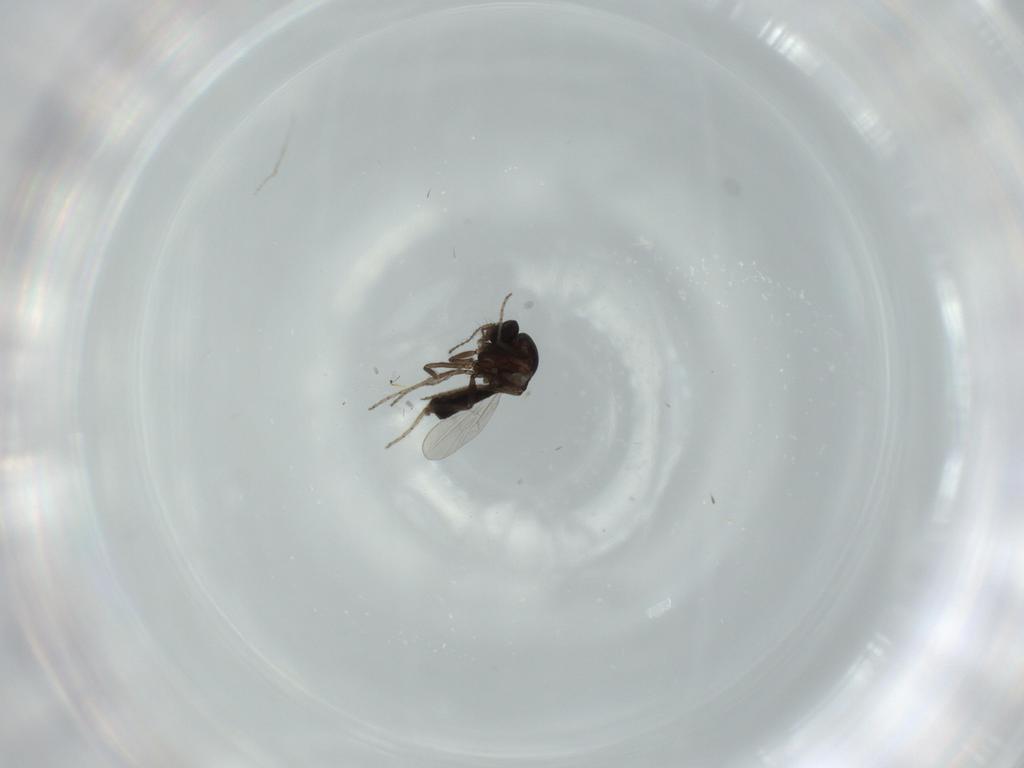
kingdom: Animalia
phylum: Arthropoda
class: Insecta
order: Diptera
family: Ceratopogonidae
